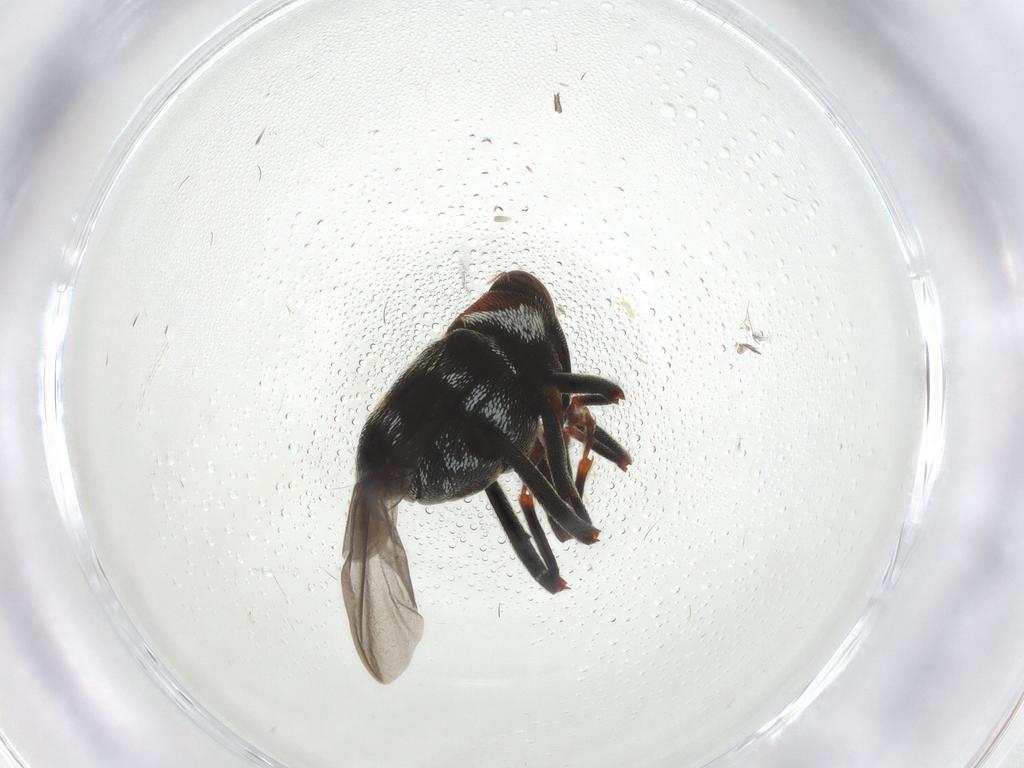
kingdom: Animalia
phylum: Arthropoda
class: Insecta
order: Coleoptera
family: Curculionidae
